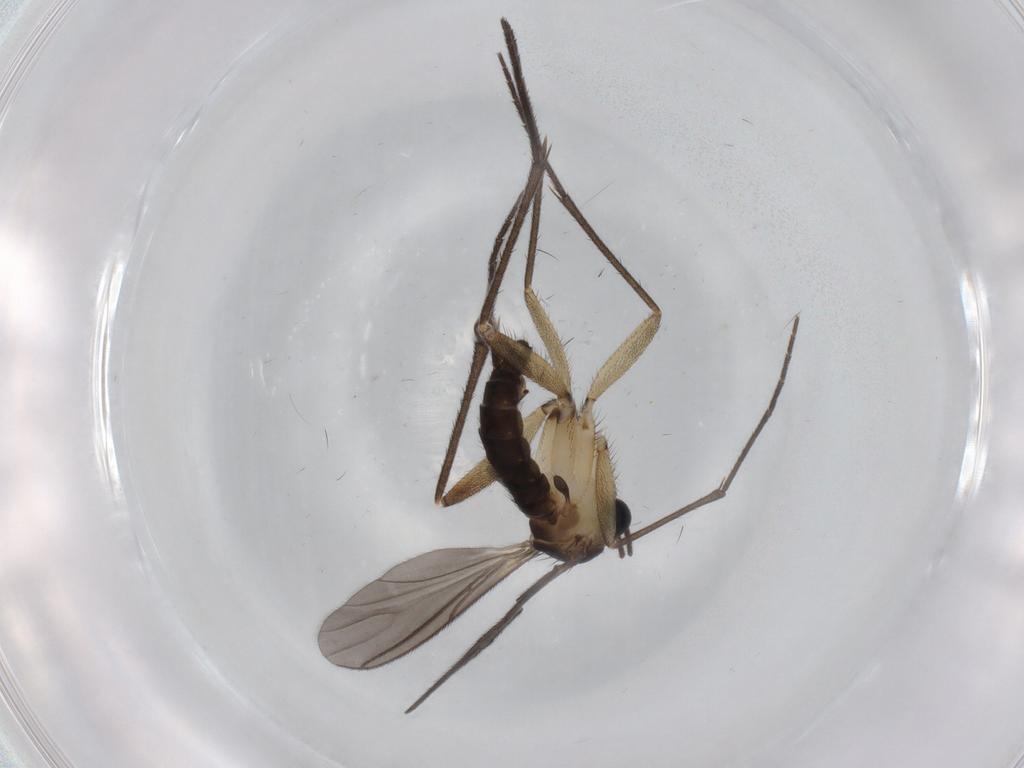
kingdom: Animalia
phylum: Arthropoda
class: Insecta
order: Diptera
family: Sciaridae
